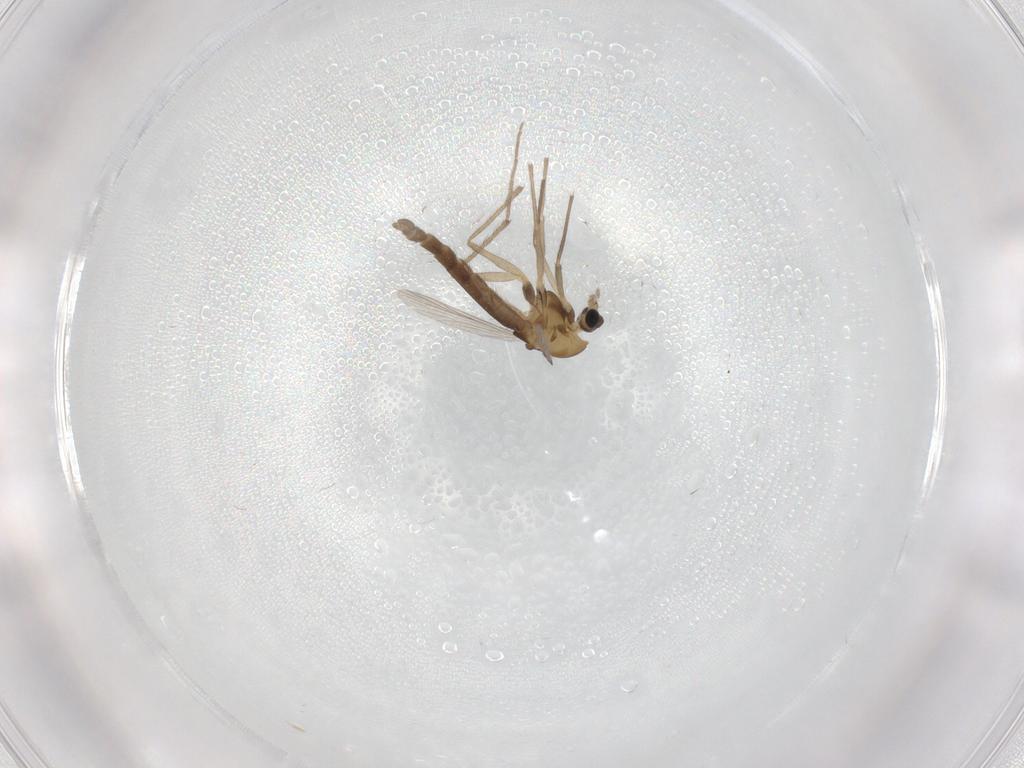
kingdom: Animalia
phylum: Arthropoda
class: Insecta
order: Diptera
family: Chironomidae
